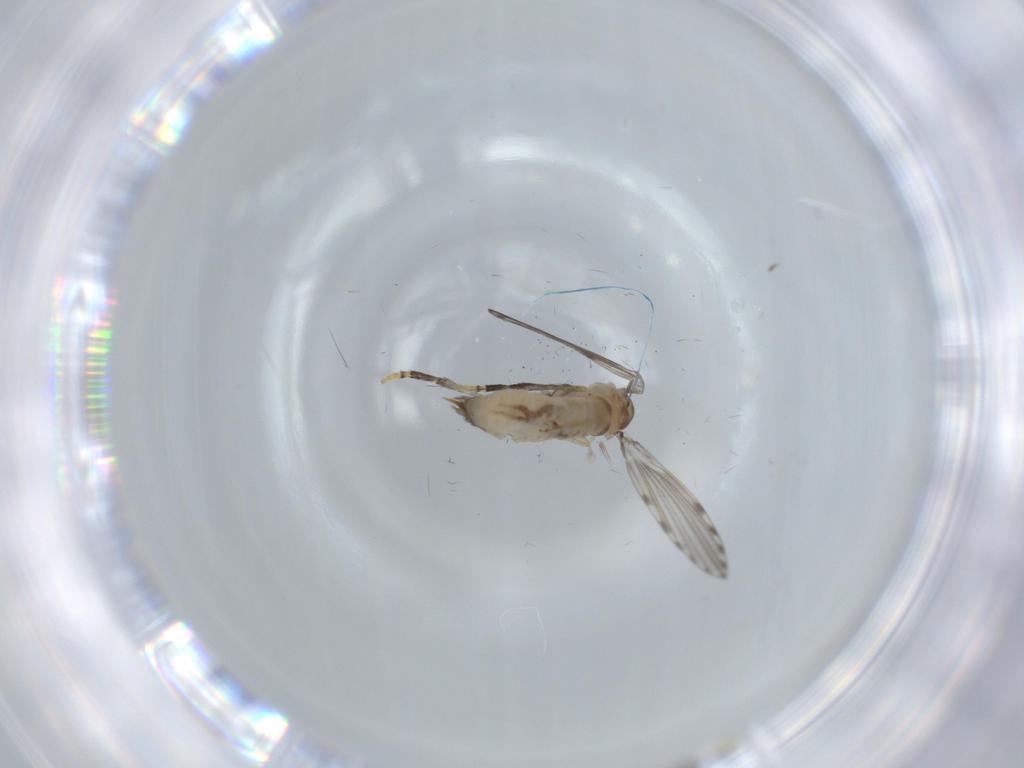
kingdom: Animalia
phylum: Arthropoda
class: Insecta
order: Diptera
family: Psychodidae
